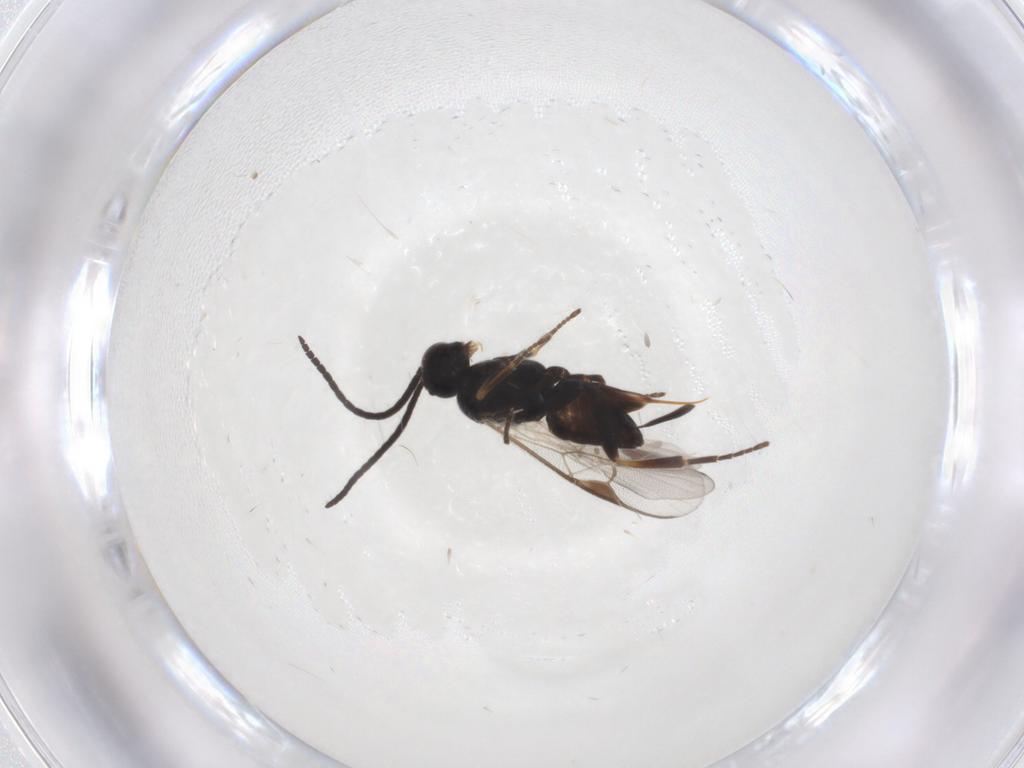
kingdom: Animalia
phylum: Arthropoda
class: Insecta
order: Hymenoptera
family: Braconidae
